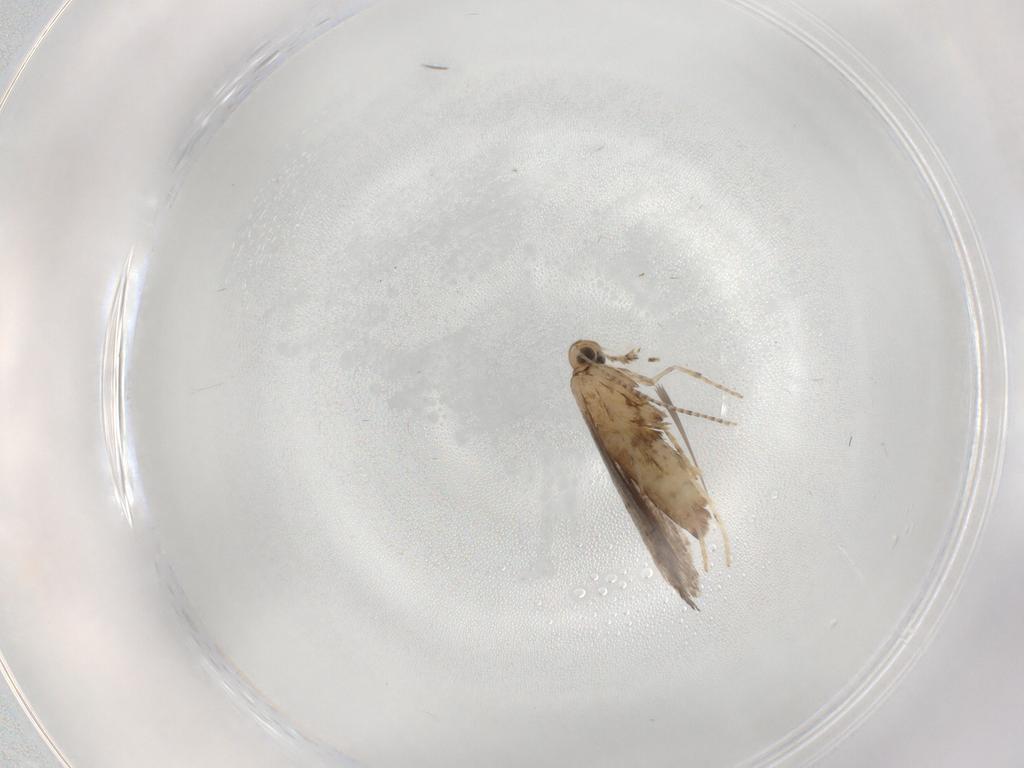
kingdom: Animalia
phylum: Arthropoda
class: Insecta
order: Lepidoptera
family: Gracillariidae
